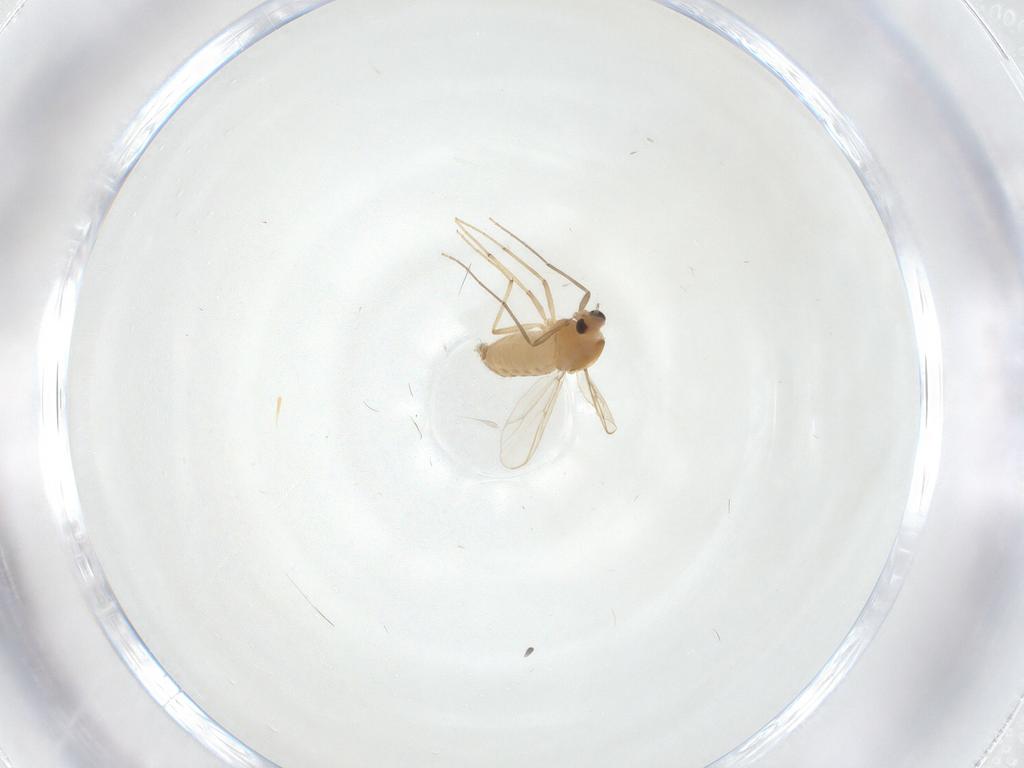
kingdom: Animalia
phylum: Arthropoda
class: Insecta
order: Diptera
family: Chironomidae
